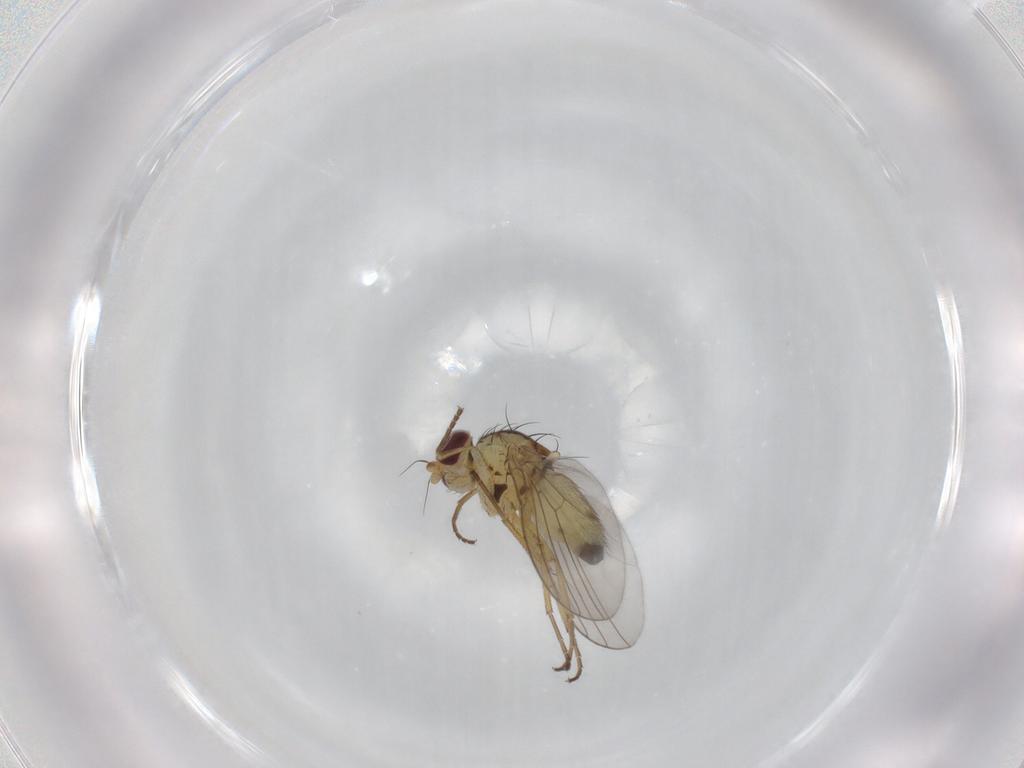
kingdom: Animalia
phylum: Arthropoda
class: Insecta
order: Diptera
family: Agromyzidae
